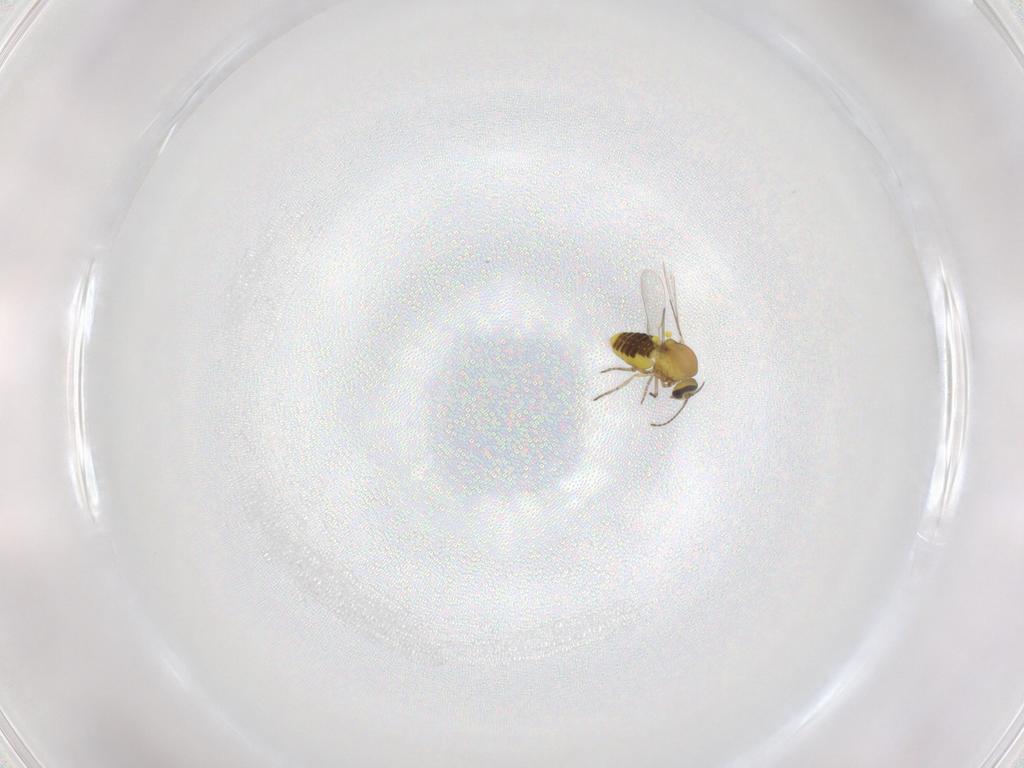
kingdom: Animalia
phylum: Arthropoda
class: Insecta
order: Diptera
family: Ceratopogonidae
